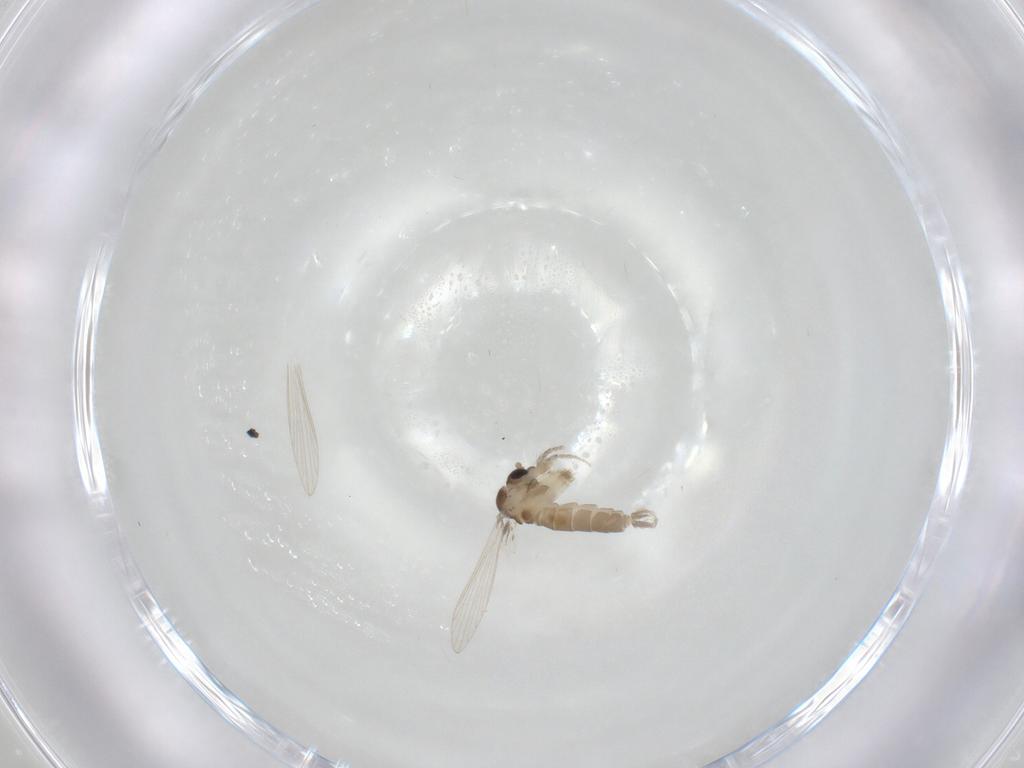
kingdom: Animalia
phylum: Arthropoda
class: Insecta
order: Diptera
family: Psychodidae
